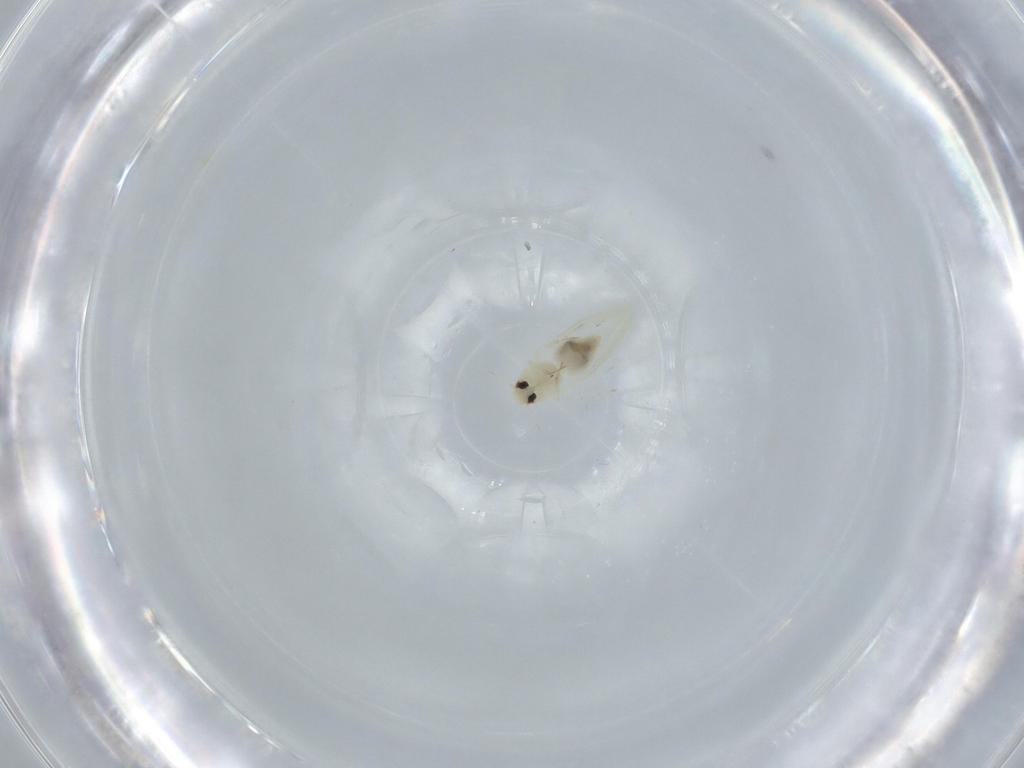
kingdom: Animalia
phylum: Arthropoda
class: Insecta
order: Hemiptera
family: Aleyrodidae
